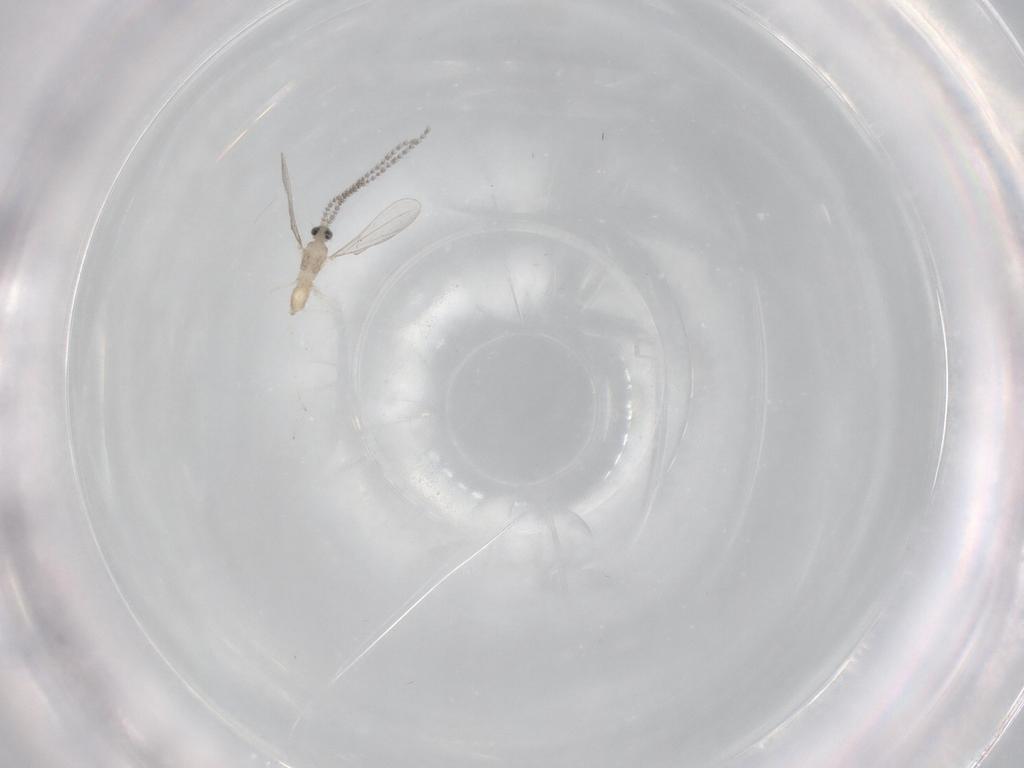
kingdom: Animalia
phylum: Arthropoda
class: Insecta
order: Diptera
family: Cecidomyiidae
